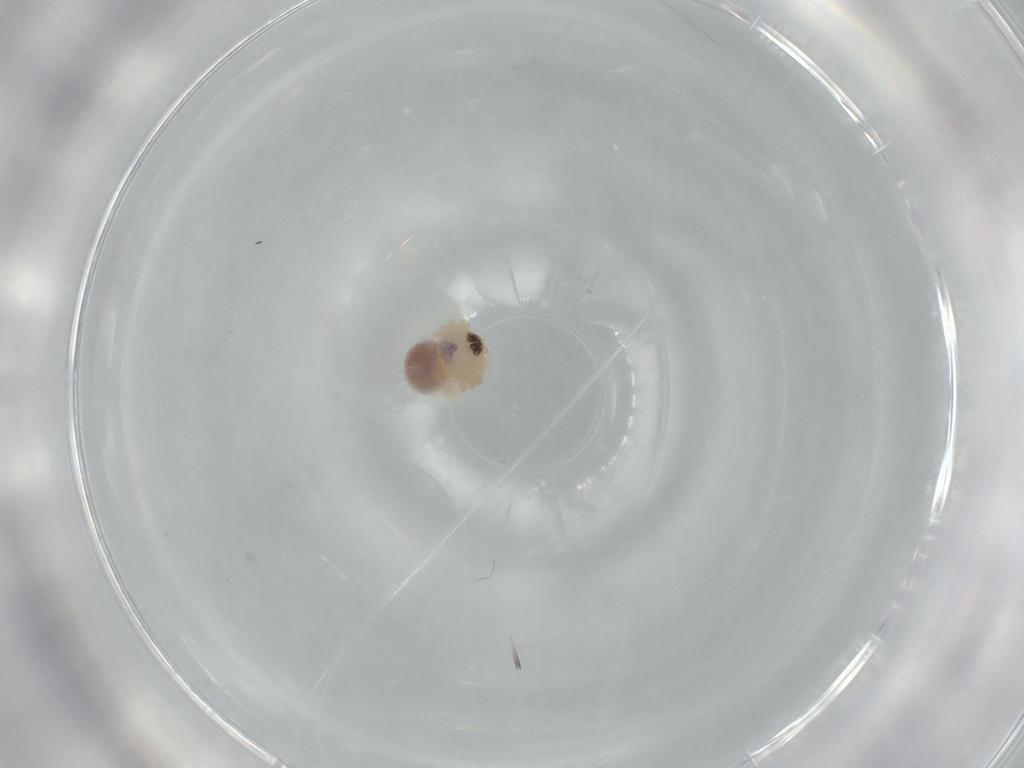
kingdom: Animalia
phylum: Arthropoda
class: Arachnida
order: Araneae
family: Pholcidae
